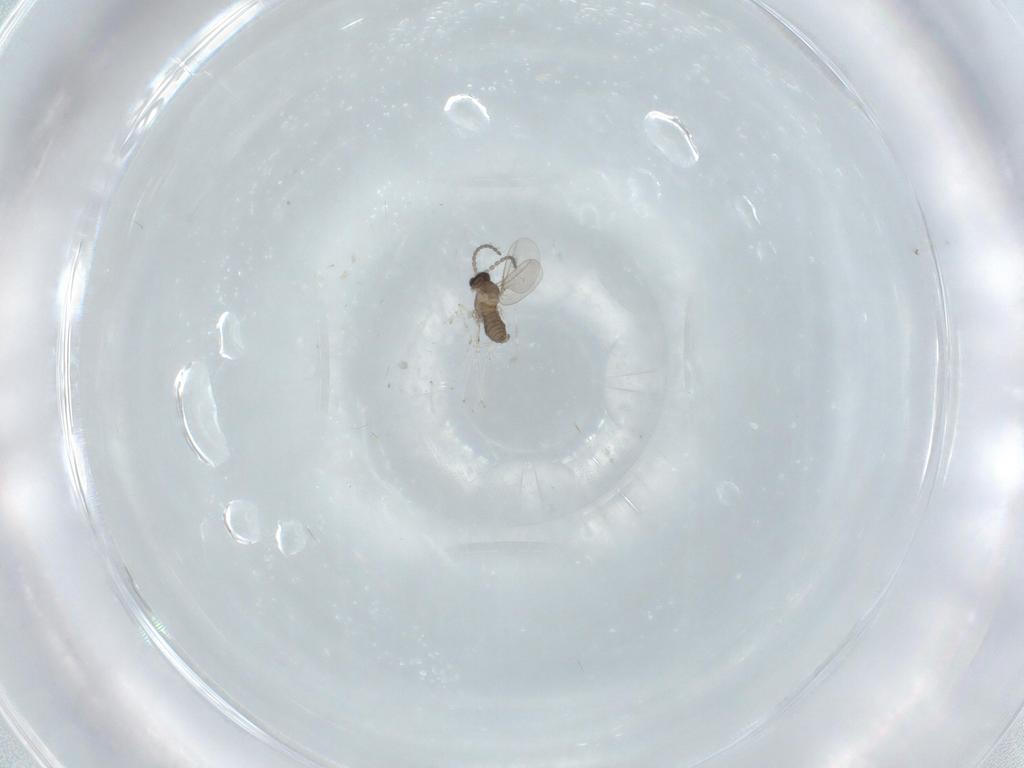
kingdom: Animalia
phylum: Arthropoda
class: Insecta
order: Diptera
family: Cecidomyiidae
